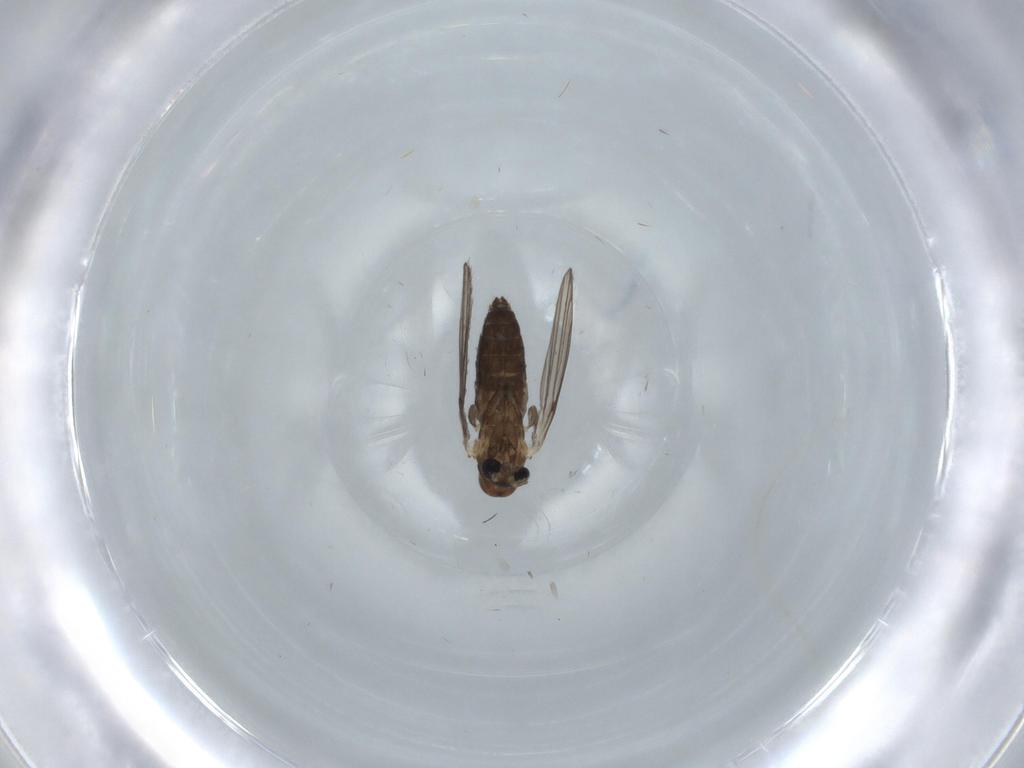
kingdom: Animalia
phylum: Arthropoda
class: Insecta
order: Diptera
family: Psychodidae
